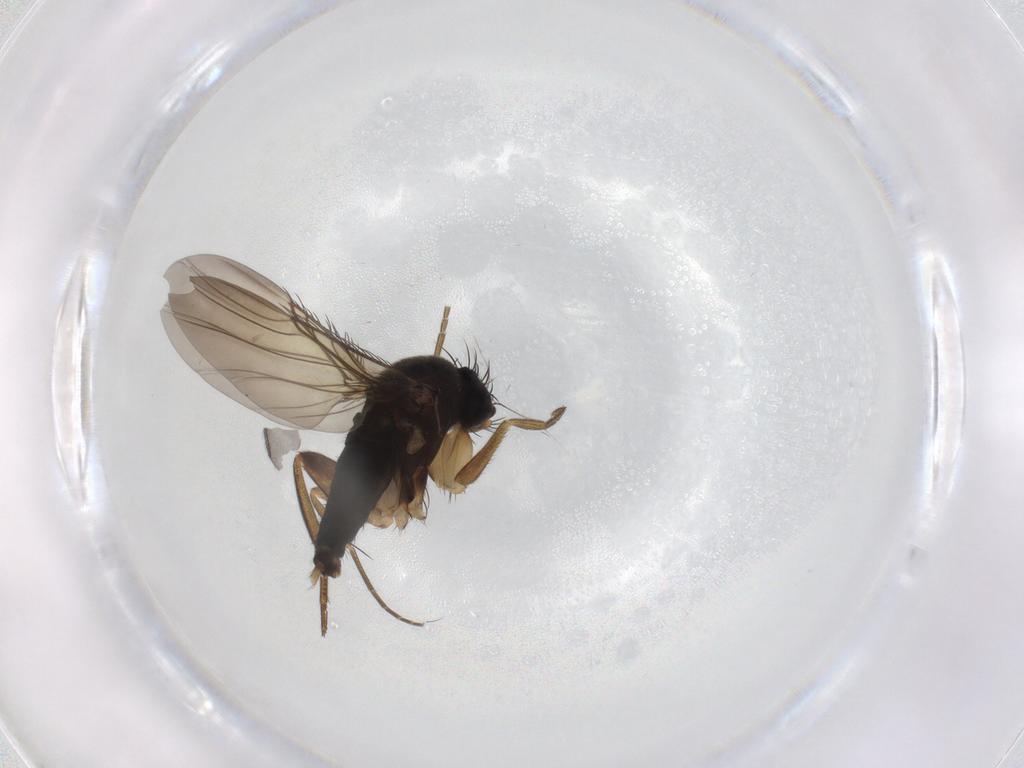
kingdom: Animalia
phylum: Arthropoda
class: Insecta
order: Diptera
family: Phoridae
